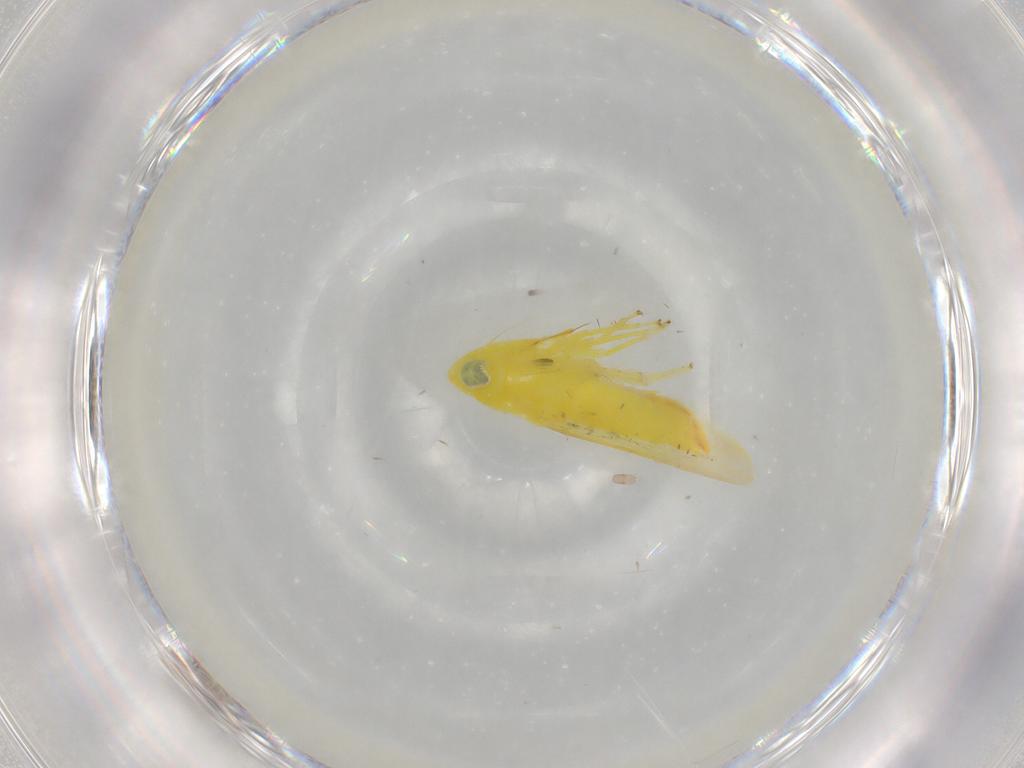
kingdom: Animalia
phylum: Arthropoda
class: Insecta
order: Hemiptera
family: Cicadellidae
